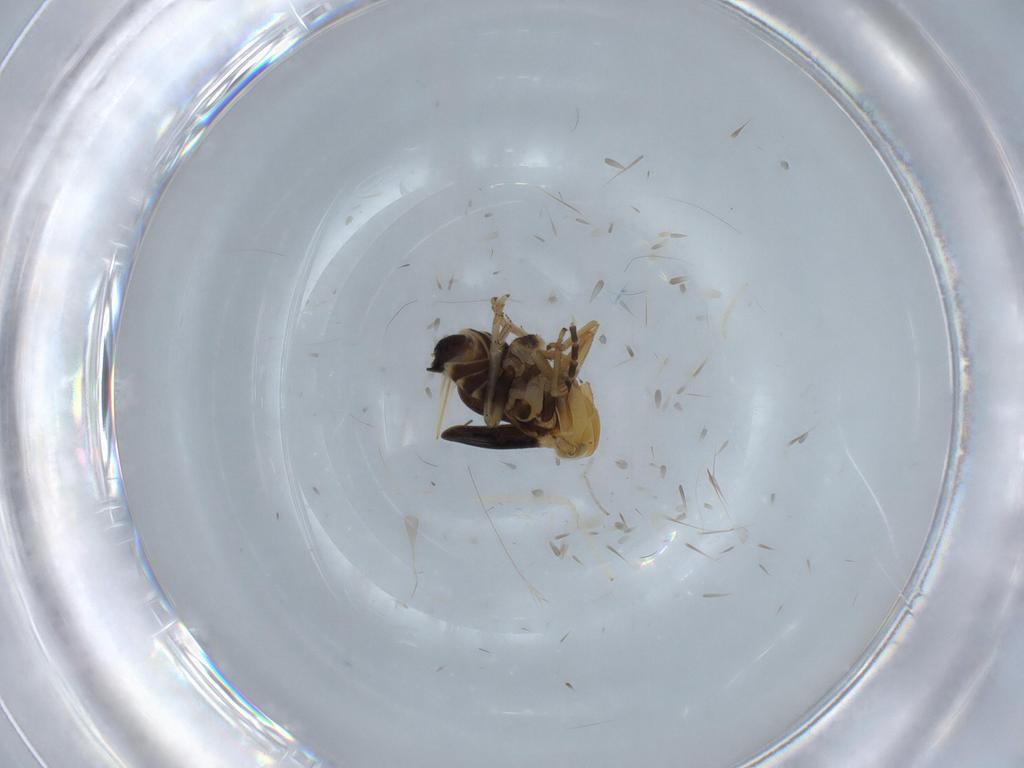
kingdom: Animalia
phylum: Arthropoda
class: Insecta
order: Hemiptera
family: Delphacidae
